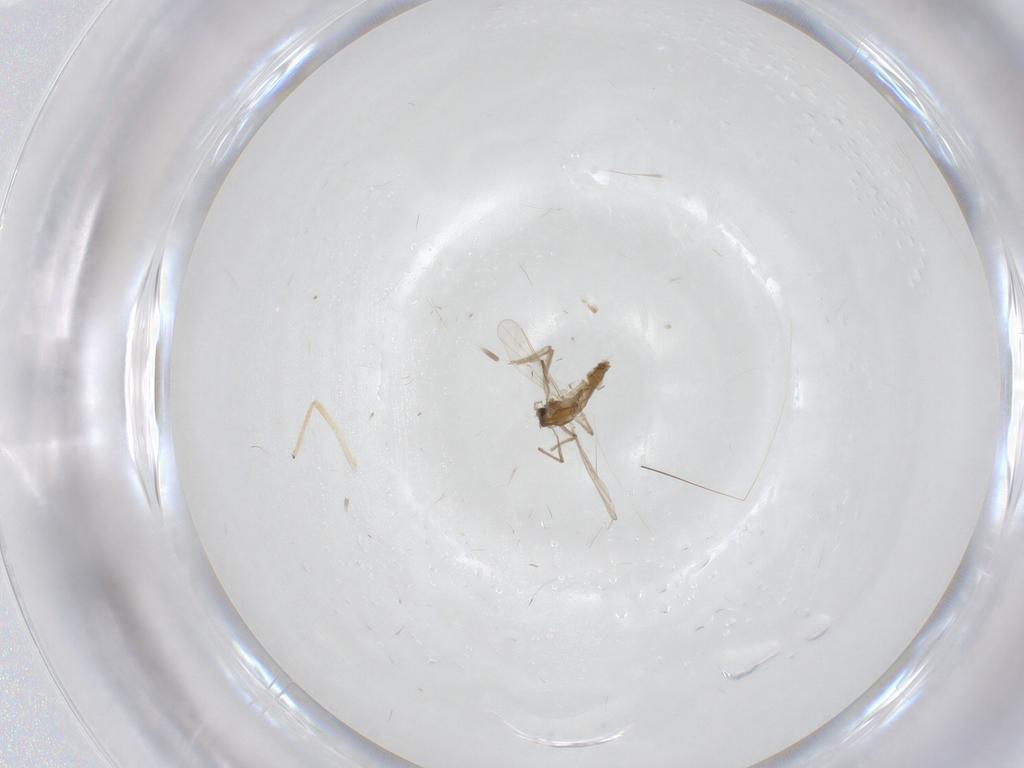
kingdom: Animalia
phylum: Arthropoda
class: Insecta
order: Diptera
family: Chironomidae
